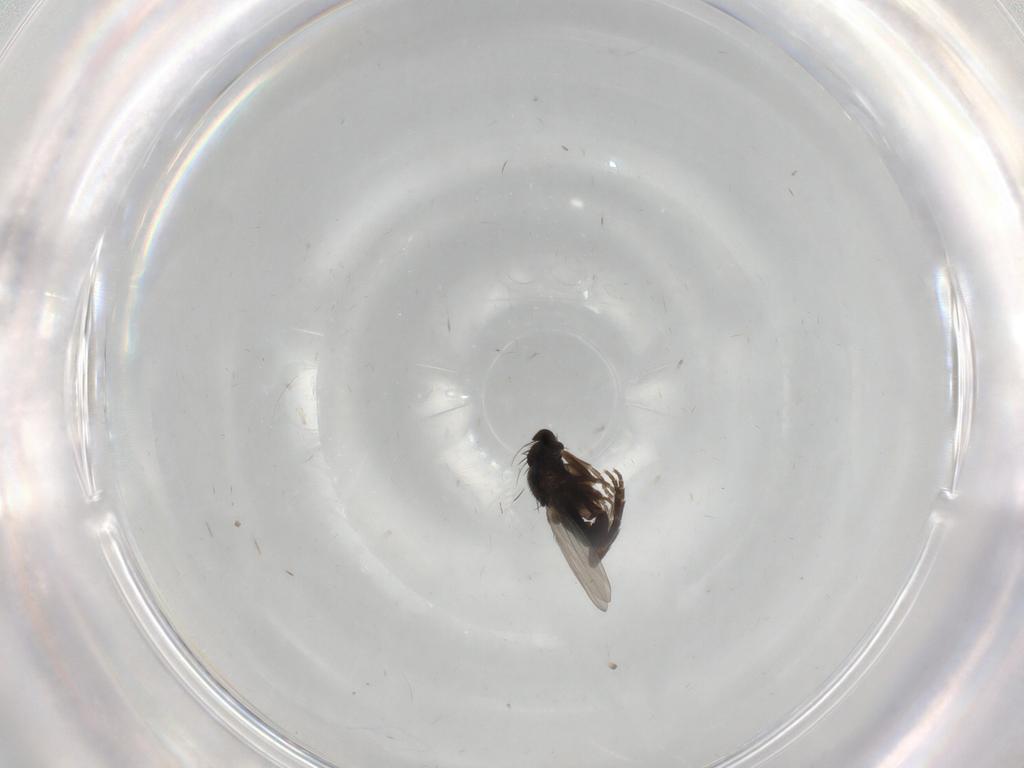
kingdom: Animalia
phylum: Arthropoda
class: Insecta
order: Diptera
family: Phoridae
